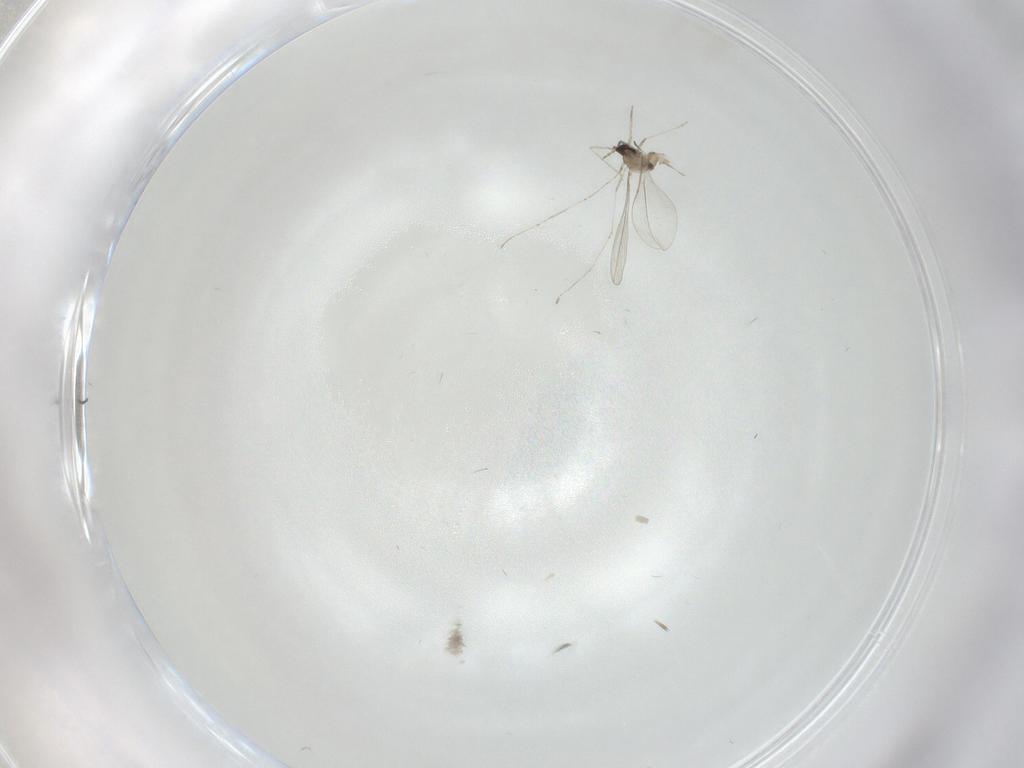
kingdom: Animalia
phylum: Arthropoda
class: Insecta
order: Diptera
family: Cecidomyiidae
